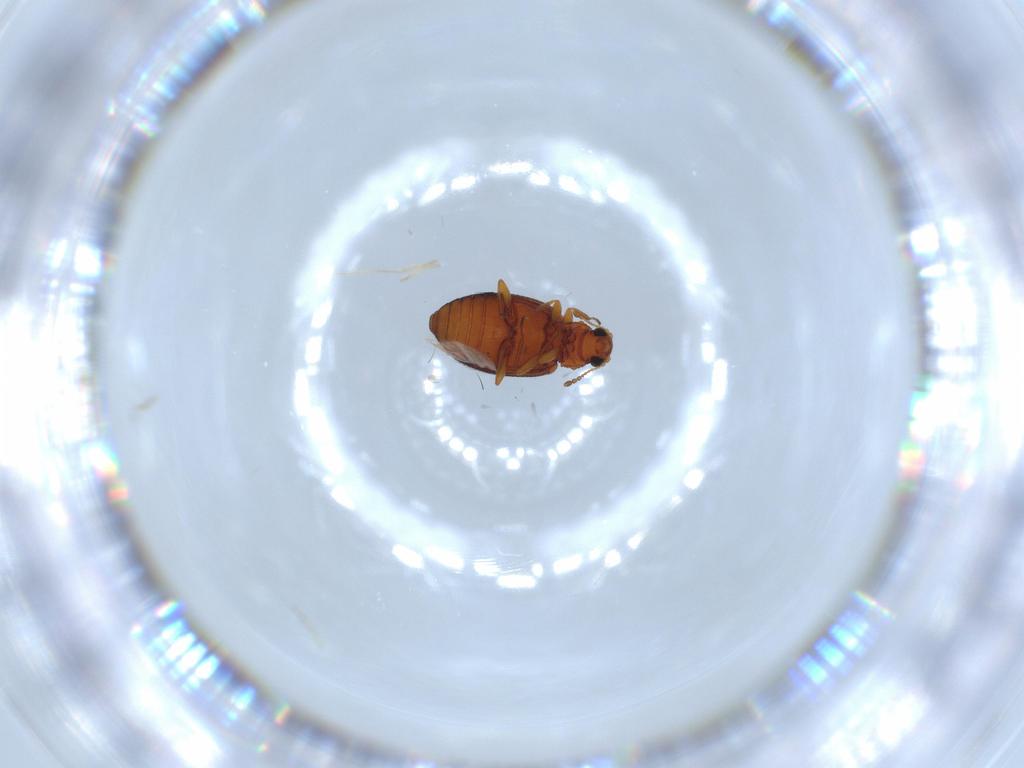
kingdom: Animalia
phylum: Arthropoda
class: Insecta
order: Coleoptera
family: Latridiidae
